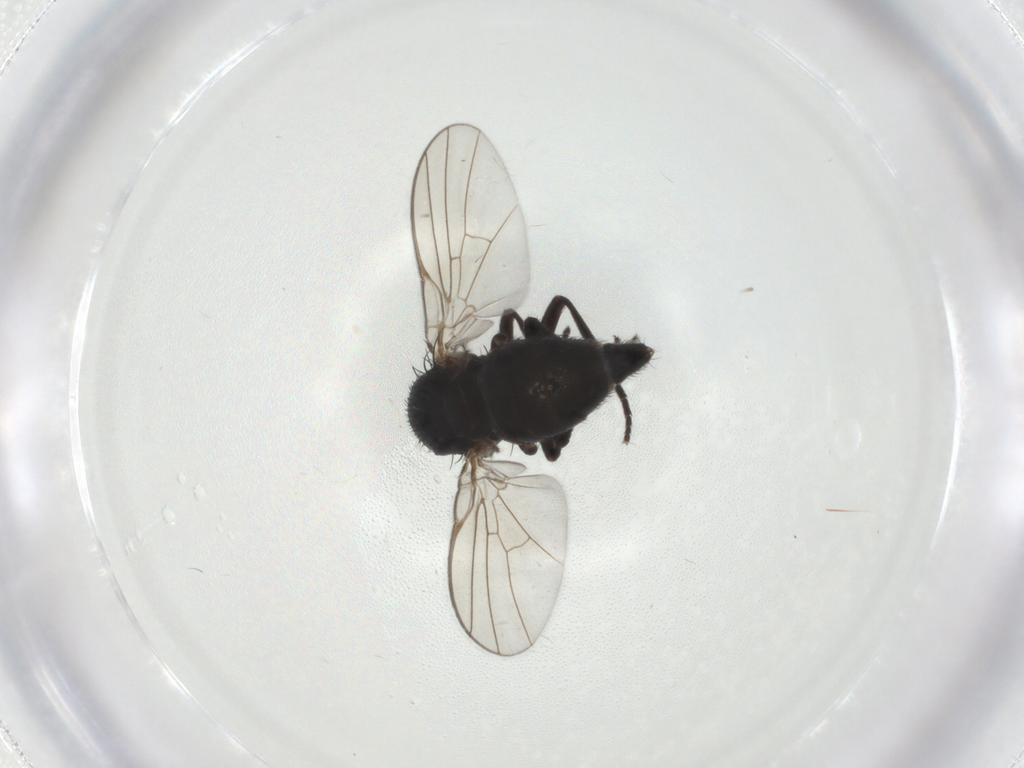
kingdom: Animalia
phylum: Arthropoda
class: Insecta
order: Diptera
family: Agromyzidae
